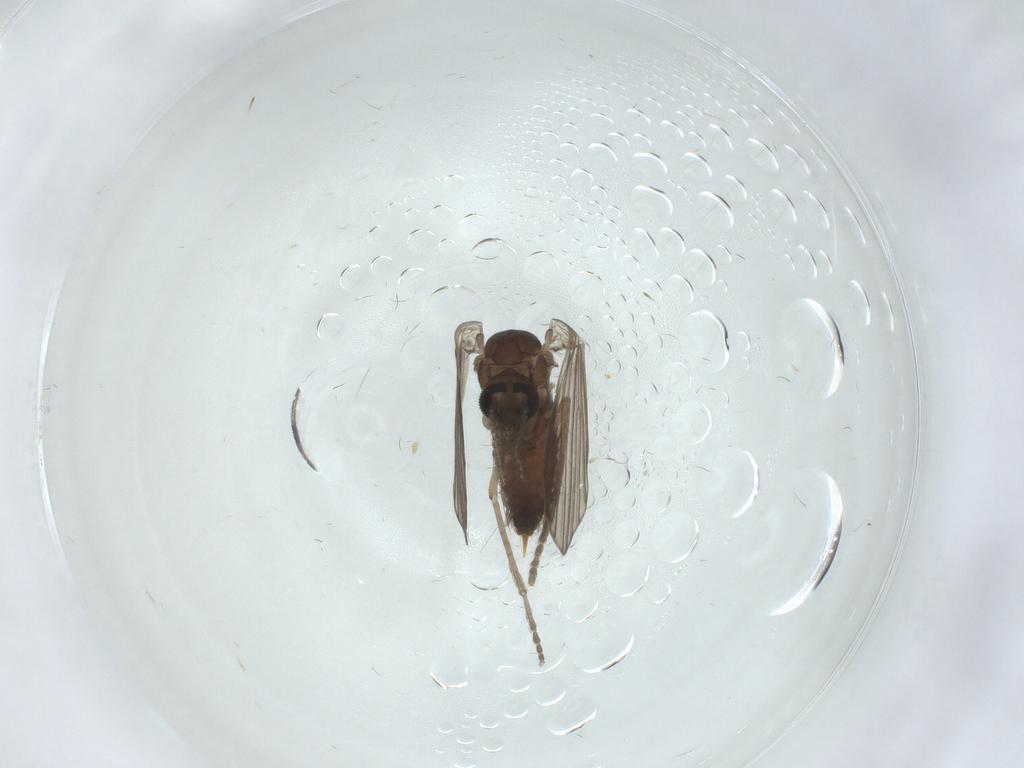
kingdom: Animalia
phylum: Arthropoda
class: Insecta
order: Diptera
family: Psychodidae
